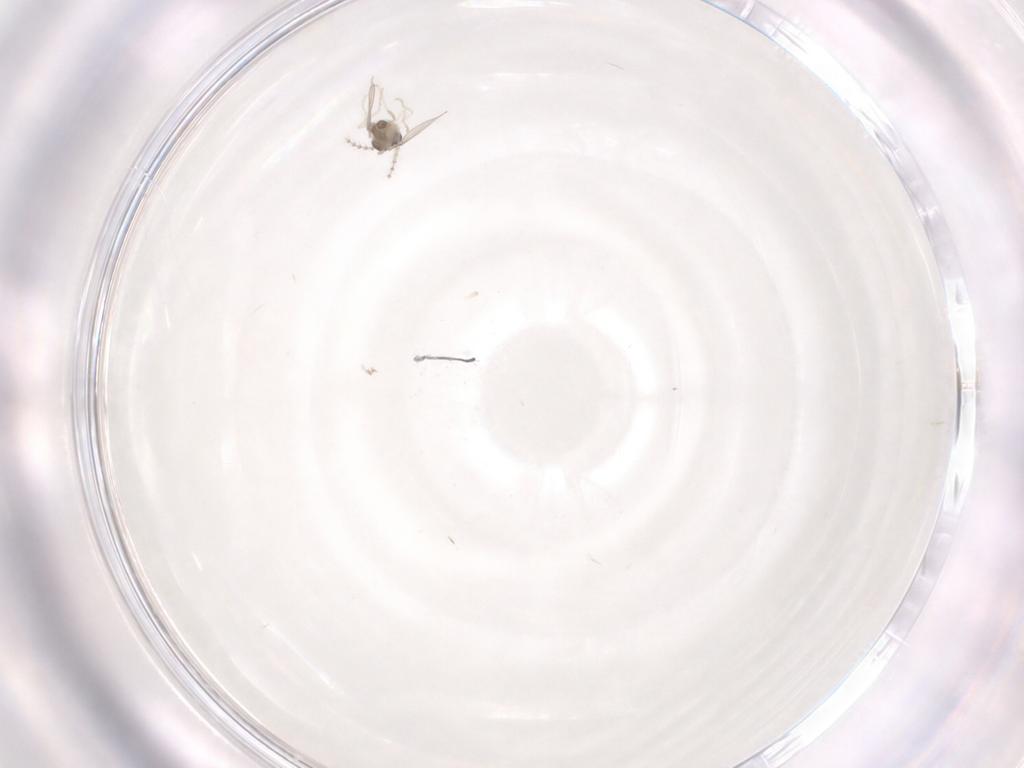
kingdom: Animalia
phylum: Arthropoda
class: Insecta
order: Diptera
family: Cecidomyiidae
